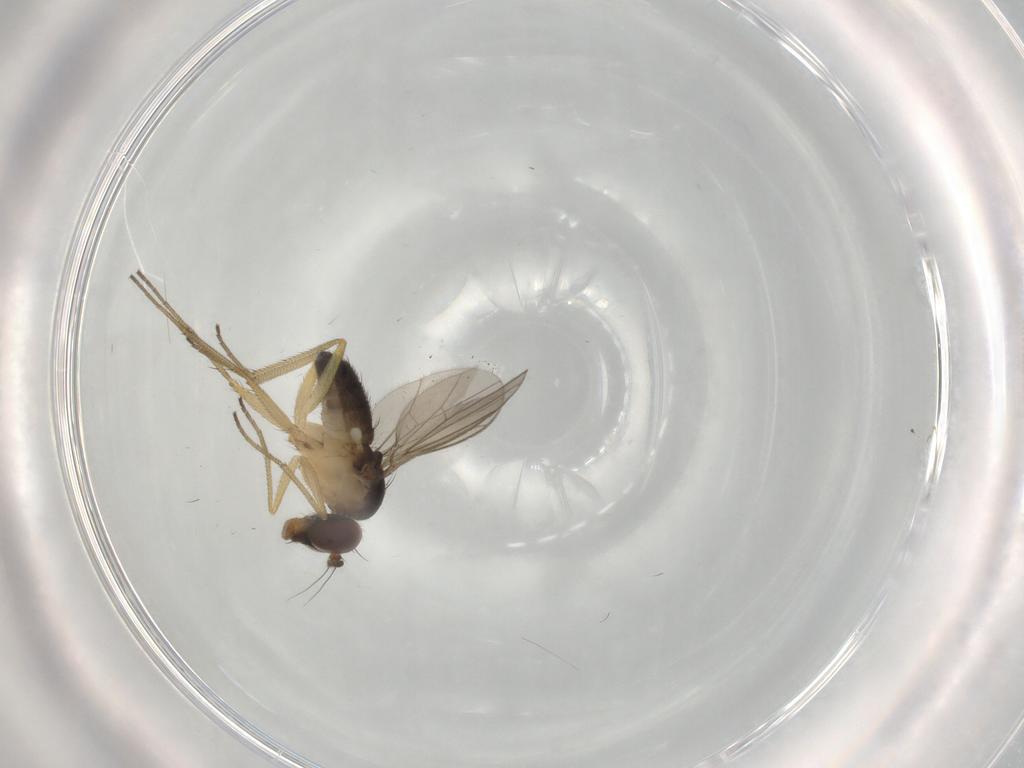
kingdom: Animalia
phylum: Arthropoda
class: Insecta
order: Diptera
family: Dolichopodidae
